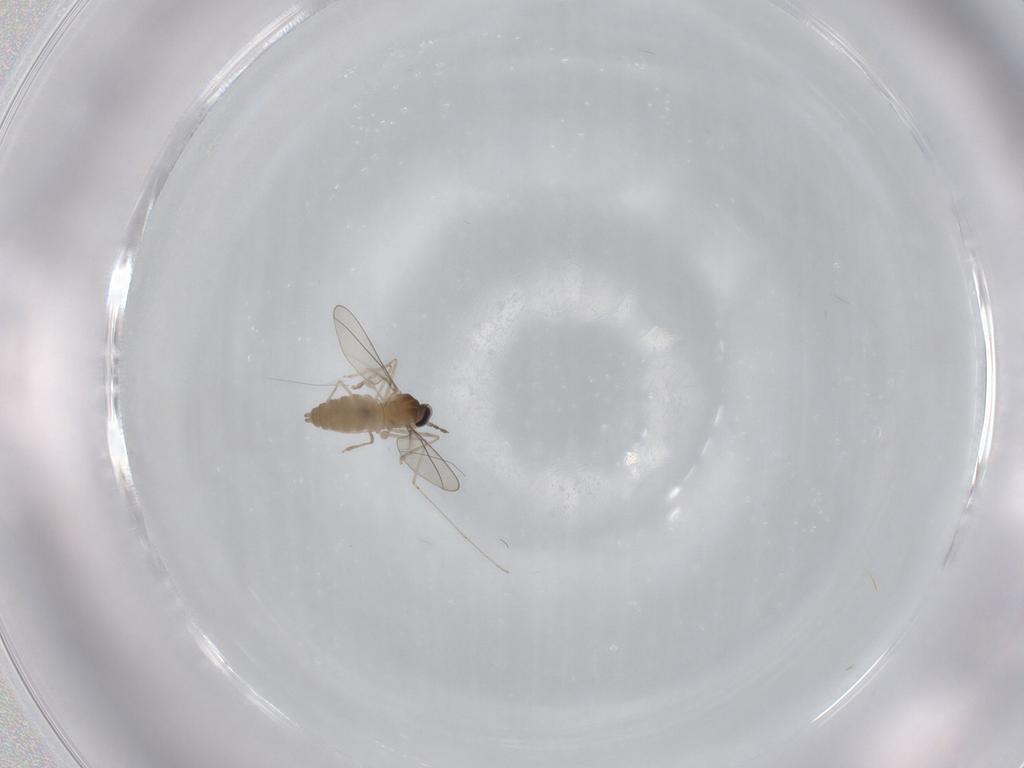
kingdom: Animalia
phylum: Arthropoda
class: Insecta
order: Diptera
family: Cecidomyiidae
